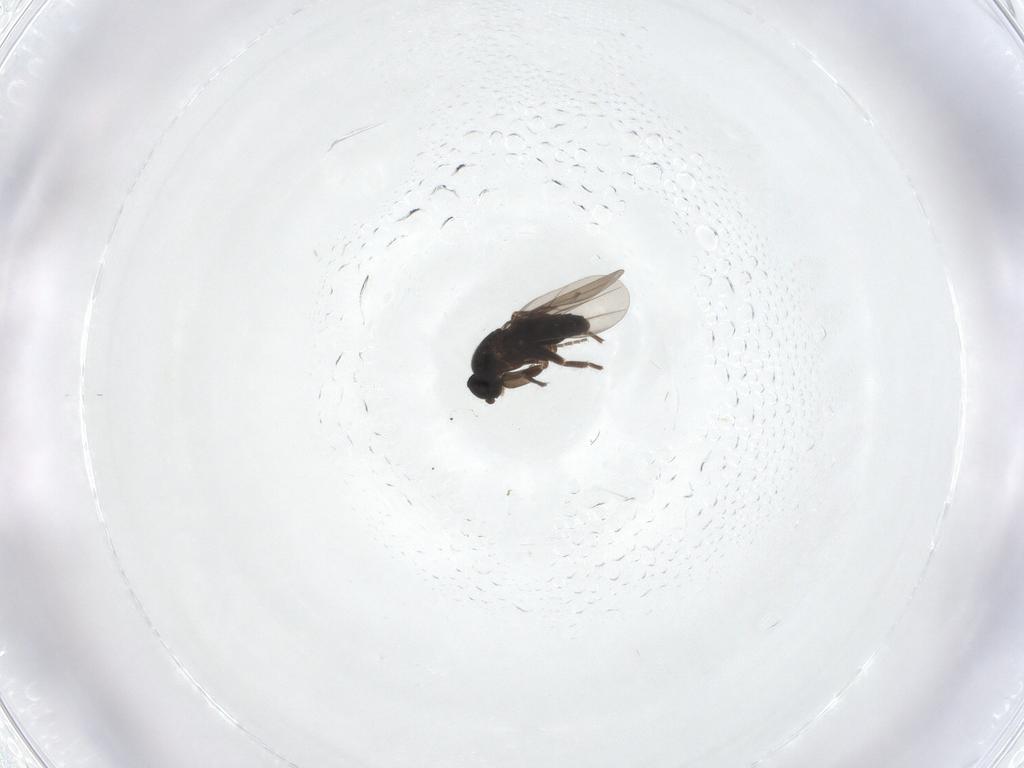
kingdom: Animalia
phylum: Arthropoda
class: Insecta
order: Diptera
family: Phoridae
